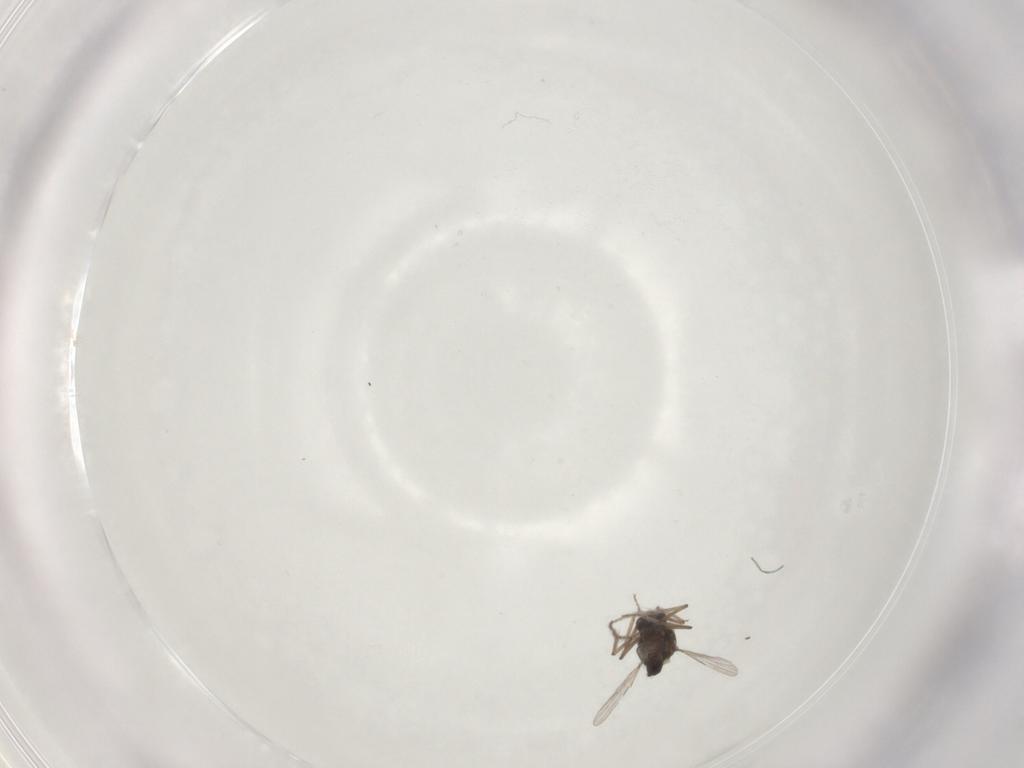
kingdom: Animalia
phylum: Arthropoda
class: Insecta
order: Diptera
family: Ceratopogonidae
